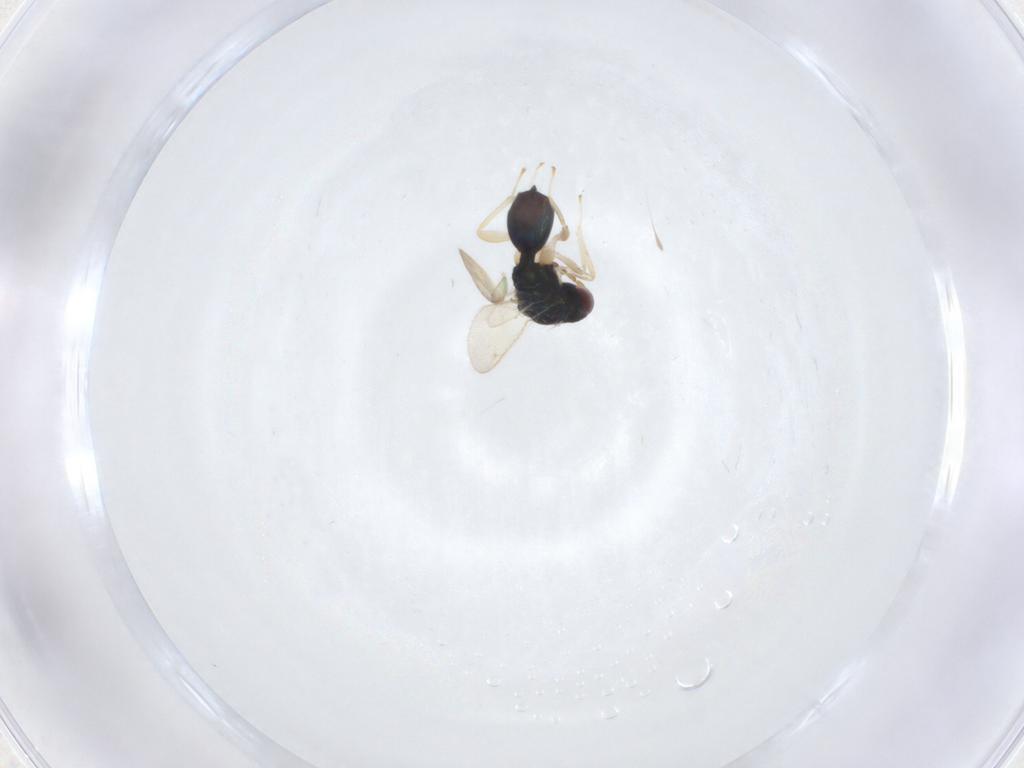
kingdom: Animalia
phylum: Arthropoda
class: Insecta
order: Hymenoptera
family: Eulophidae
